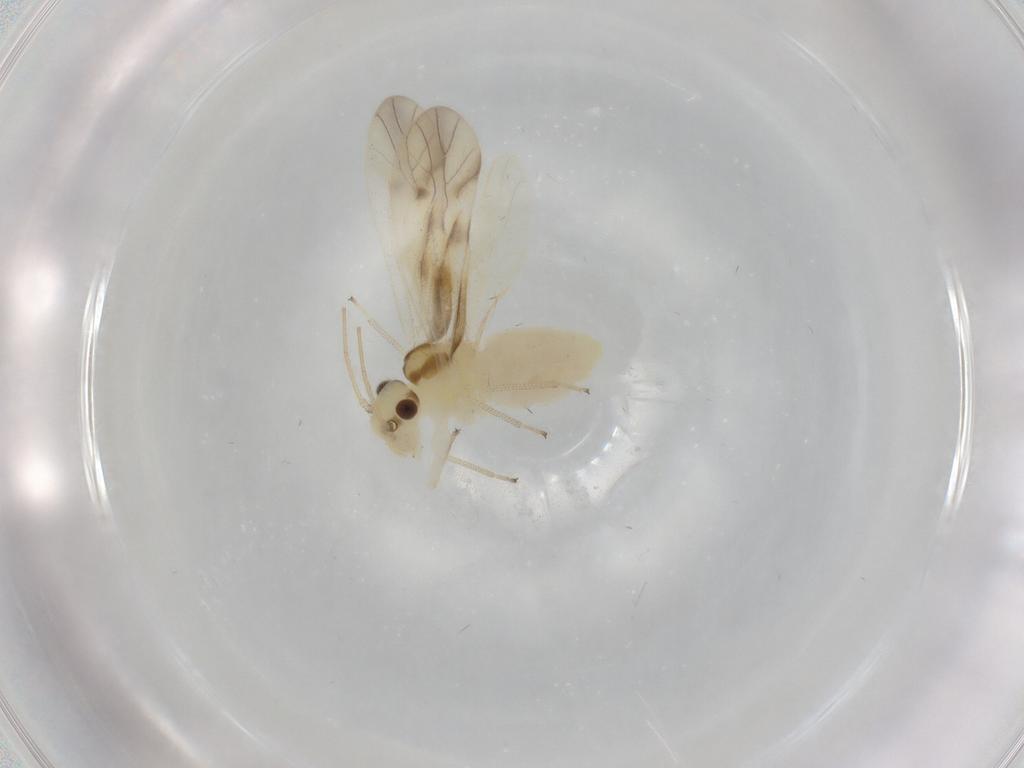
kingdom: Animalia
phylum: Arthropoda
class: Insecta
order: Psocodea
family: Caeciliusidae
